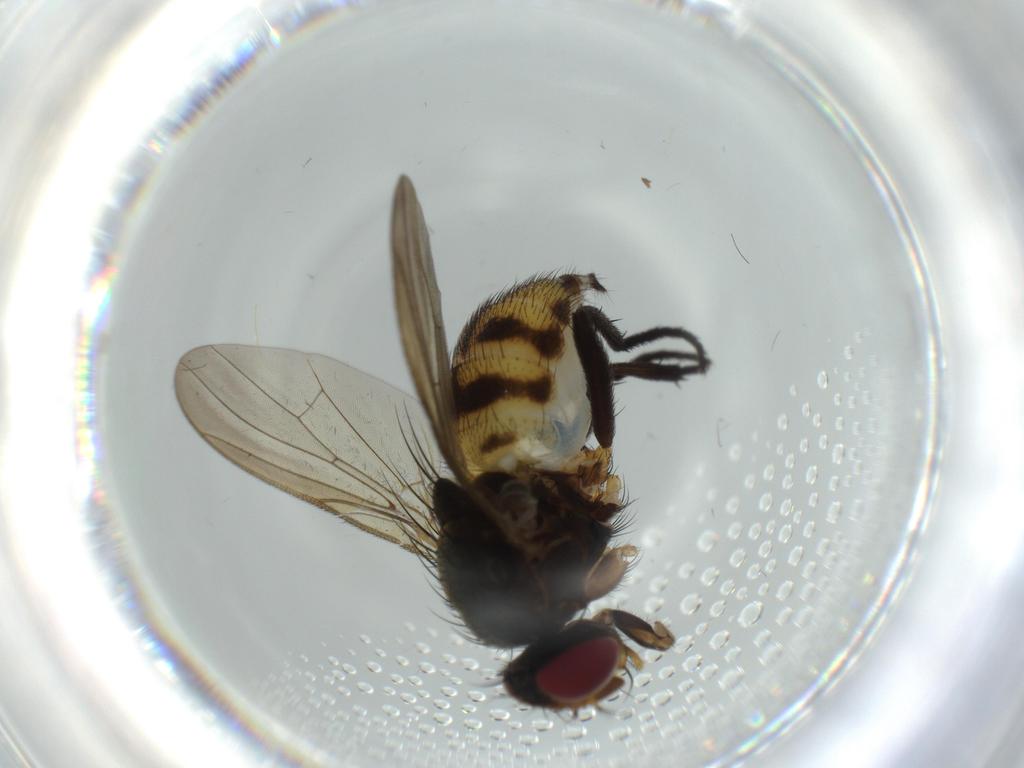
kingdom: Animalia
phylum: Arthropoda
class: Insecta
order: Diptera
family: Anthomyiidae
